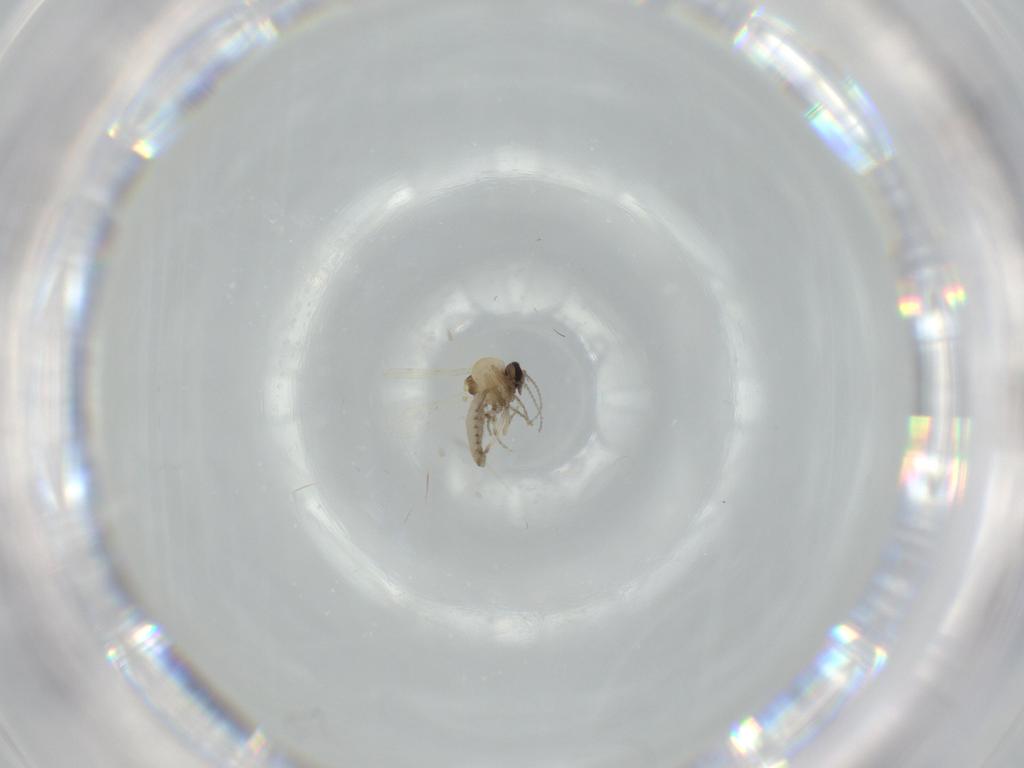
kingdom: Animalia
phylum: Arthropoda
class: Insecta
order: Diptera
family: Ceratopogonidae
